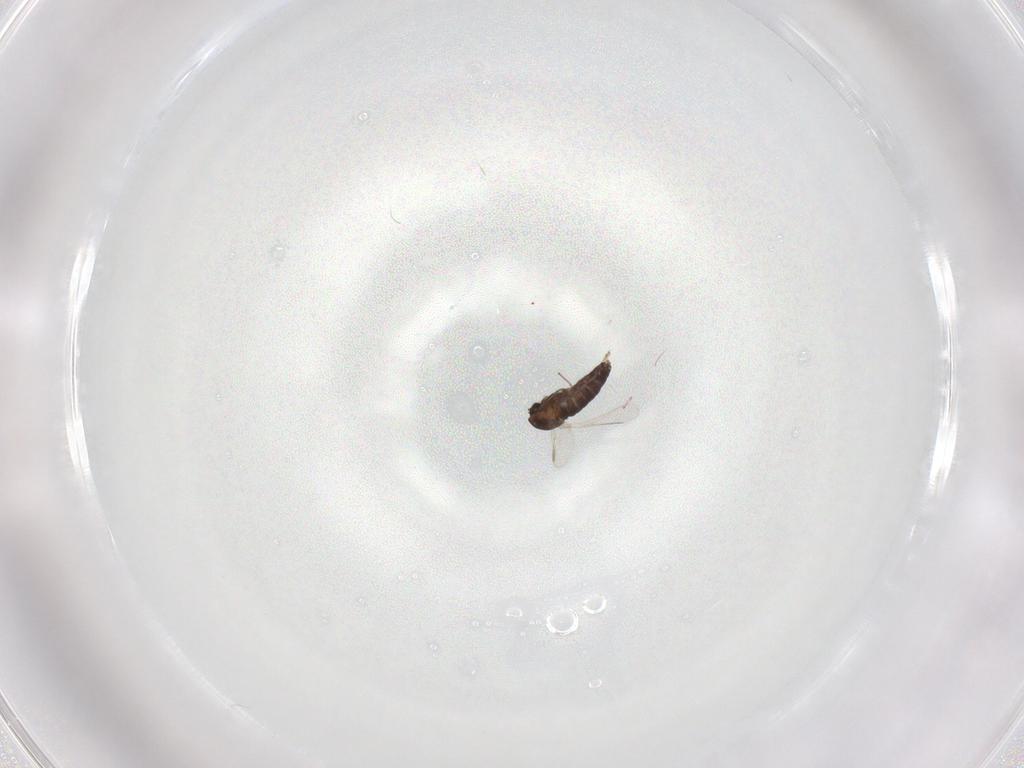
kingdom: Animalia
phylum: Arthropoda
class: Insecta
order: Diptera
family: Chironomidae
